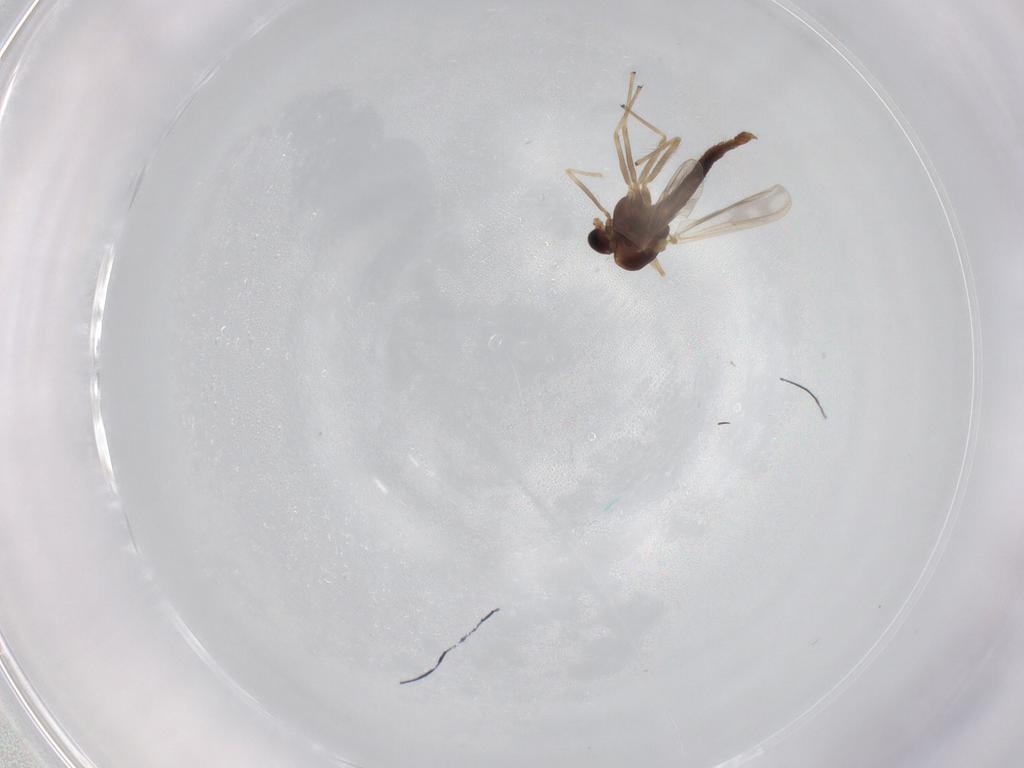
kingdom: Animalia
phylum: Arthropoda
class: Insecta
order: Diptera
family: Chironomidae
